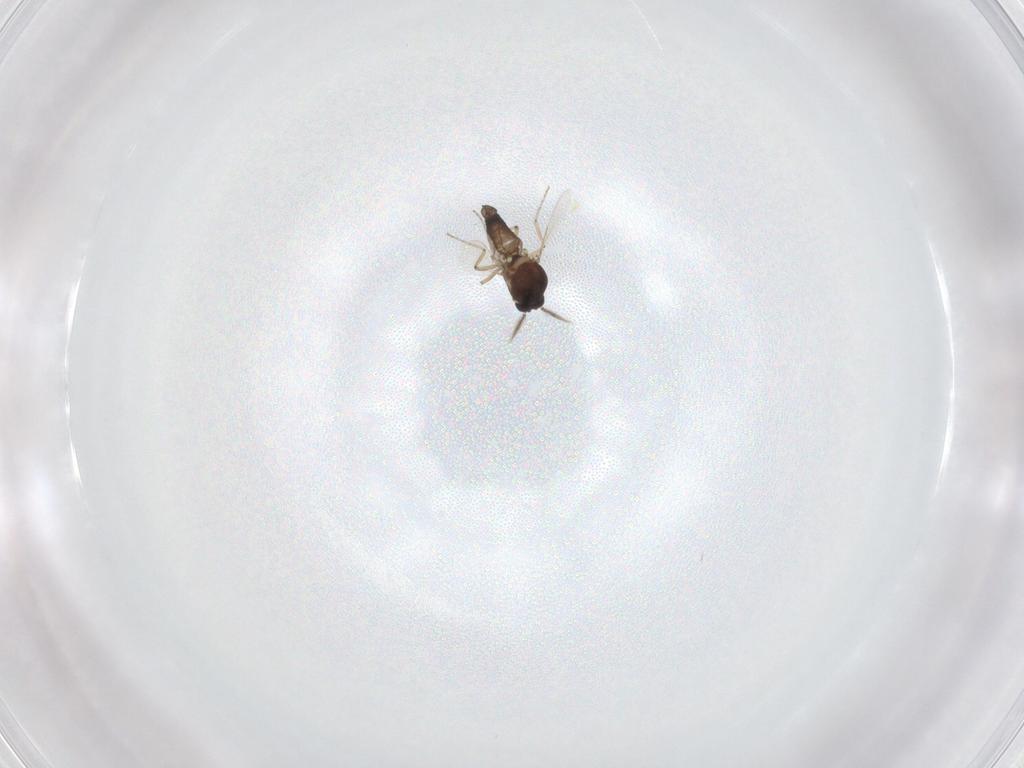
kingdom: Animalia
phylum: Arthropoda
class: Insecta
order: Diptera
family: Ceratopogonidae
